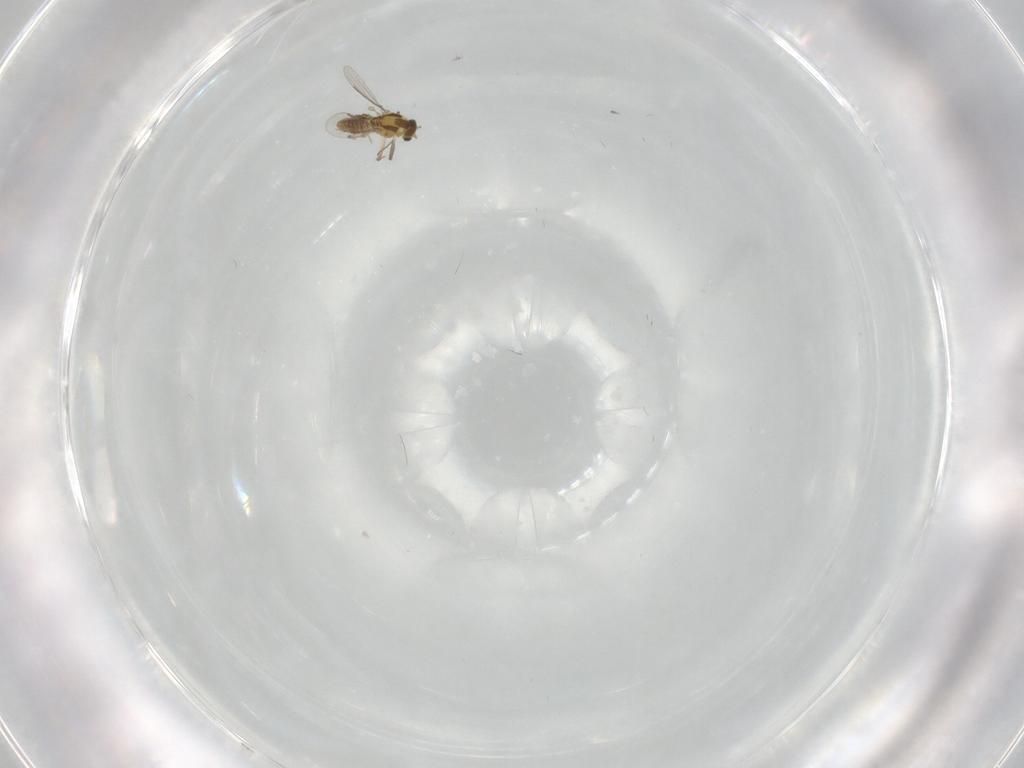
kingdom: Animalia
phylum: Arthropoda
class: Insecta
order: Diptera
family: Chironomidae
